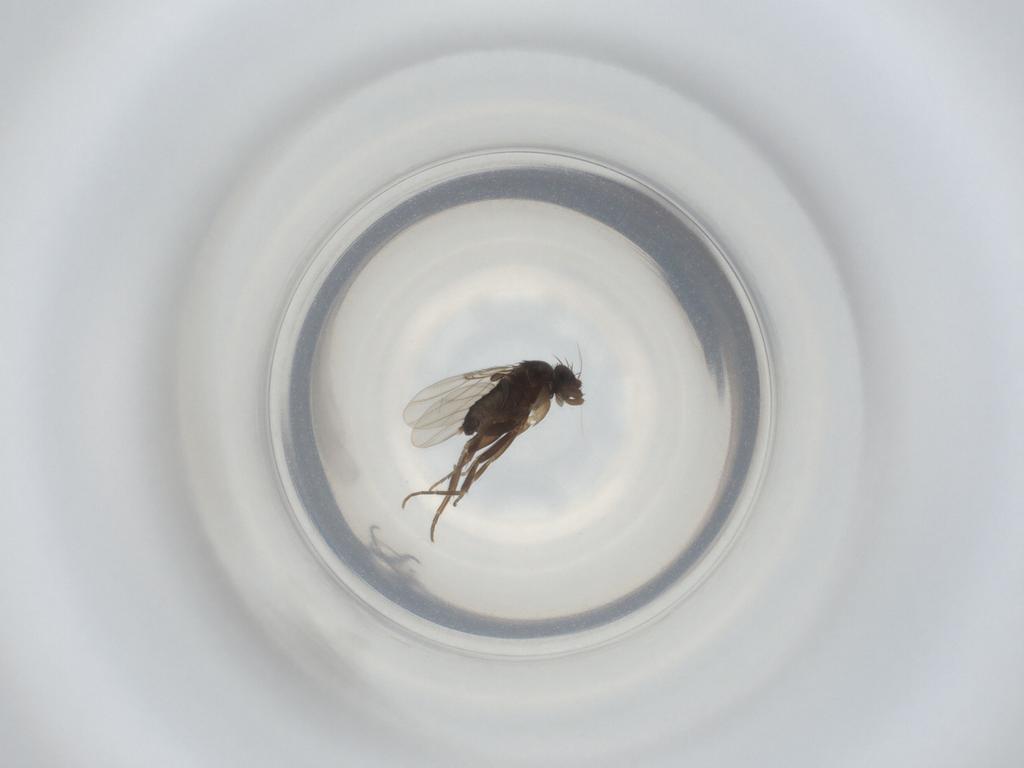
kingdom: Animalia
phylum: Arthropoda
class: Insecta
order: Diptera
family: Phoridae
